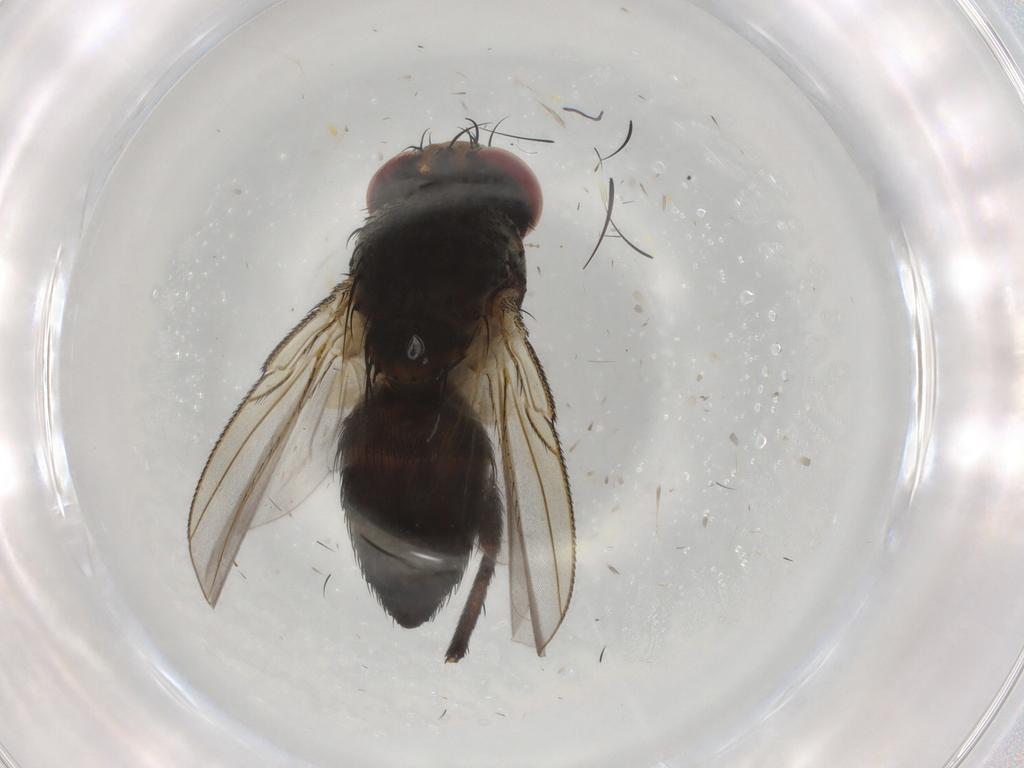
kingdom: Animalia
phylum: Arthropoda
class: Insecta
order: Diptera
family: Tachinidae
